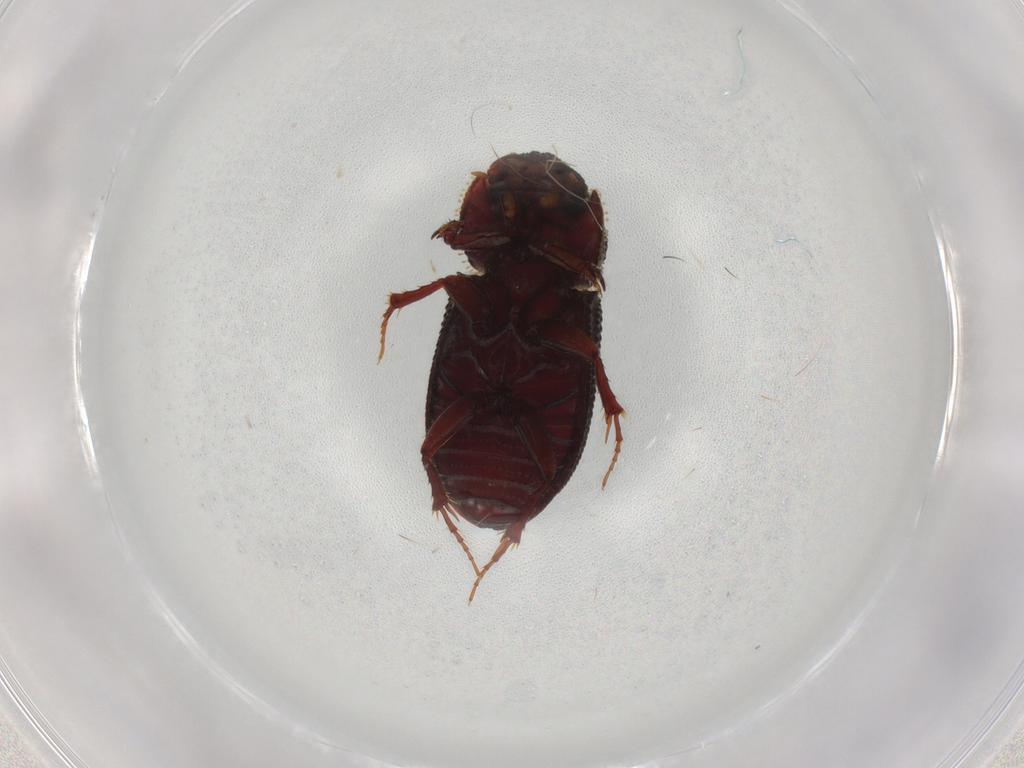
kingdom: Animalia
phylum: Arthropoda
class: Insecta
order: Coleoptera
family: Scarabaeidae
